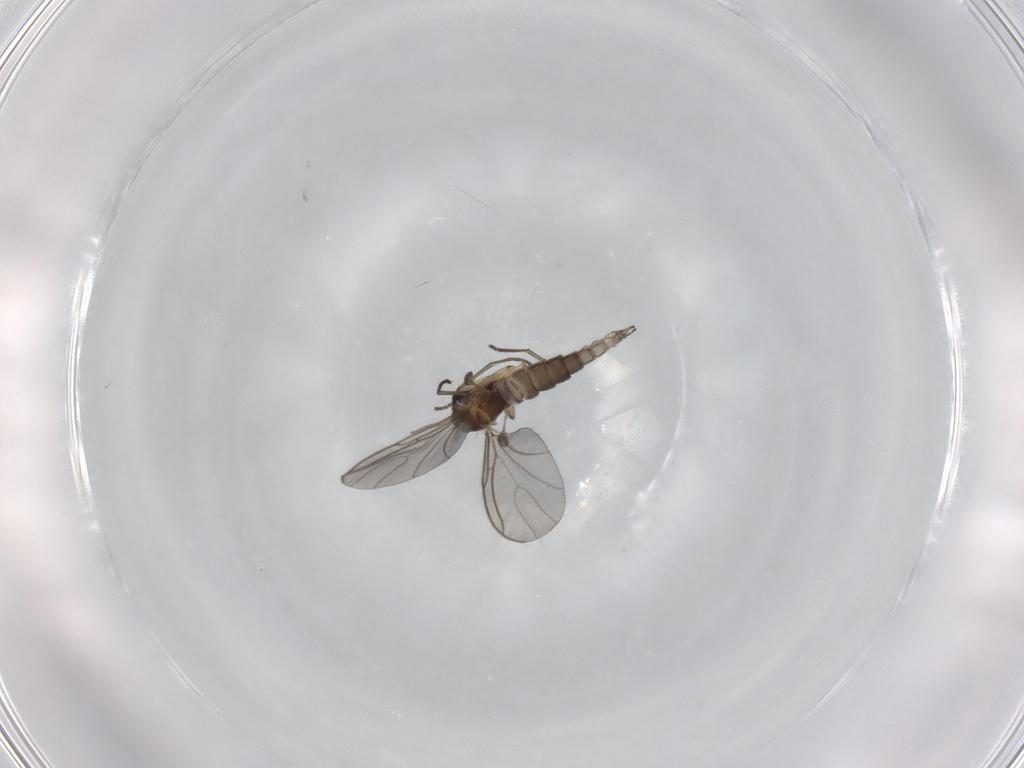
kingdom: Animalia
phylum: Arthropoda
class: Insecta
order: Diptera
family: Sciaridae
